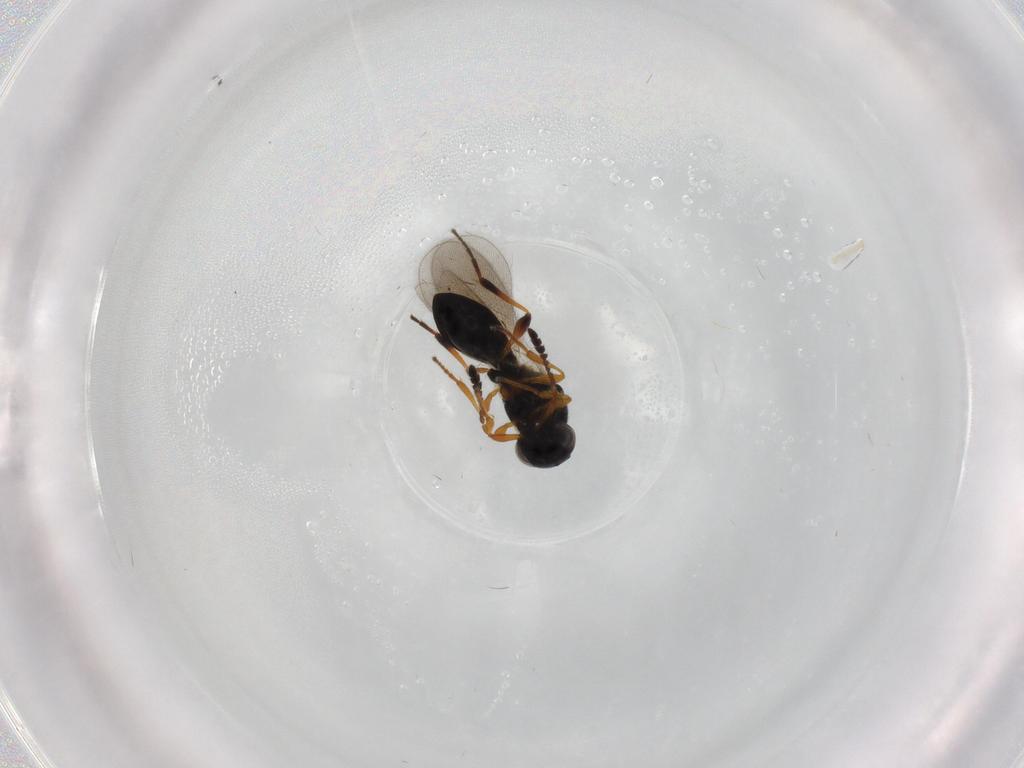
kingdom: Animalia
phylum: Arthropoda
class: Insecta
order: Hymenoptera
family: Platygastridae
